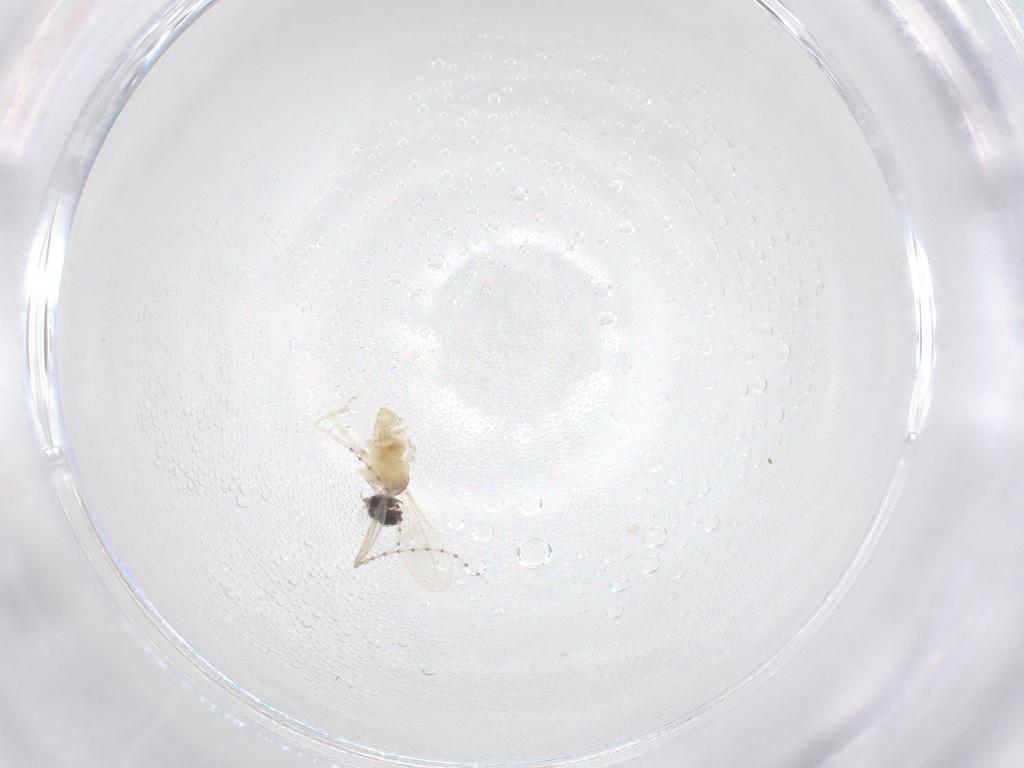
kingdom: Animalia
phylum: Arthropoda
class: Insecta
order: Diptera
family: Cecidomyiidae
